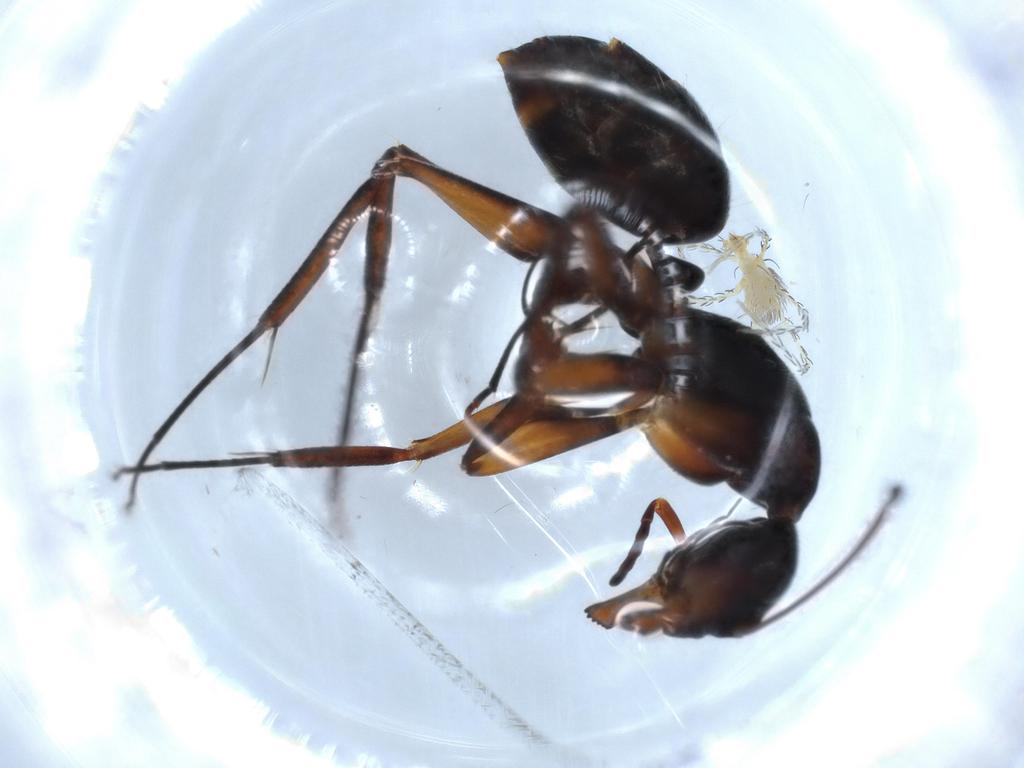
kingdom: Animalia
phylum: Arthropoda
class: Insecta
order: Hymenoptera
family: Formicidae
